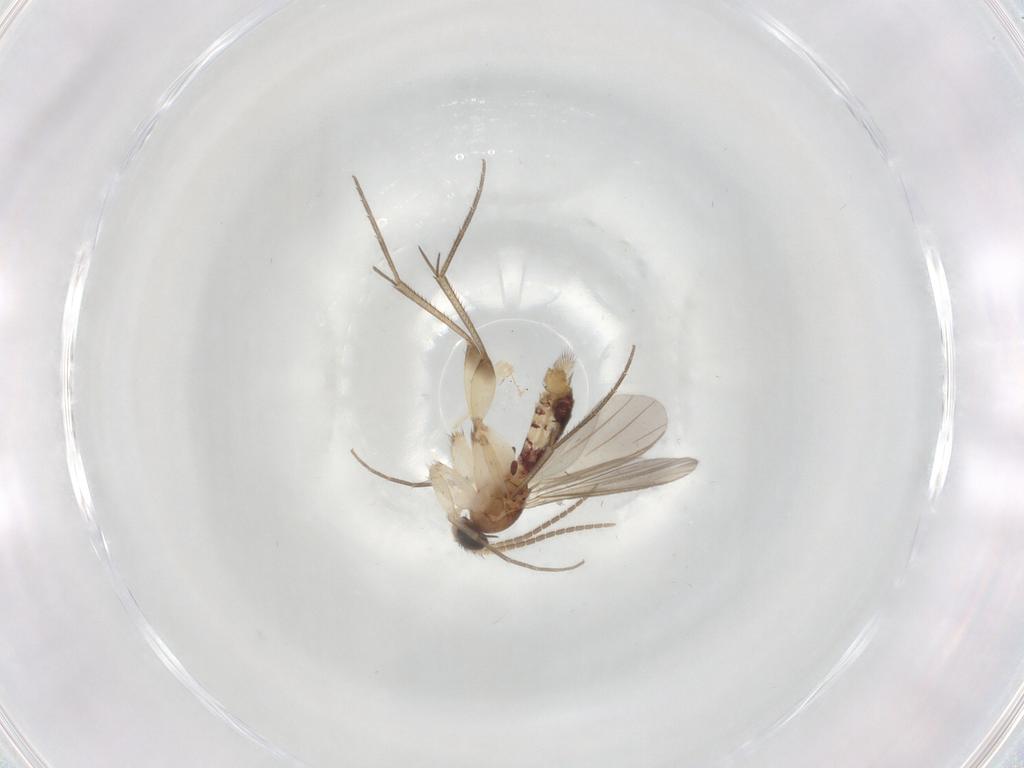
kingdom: Animalia
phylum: Arthropoda
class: Insecta
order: Diptera
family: Mycetophilidae
